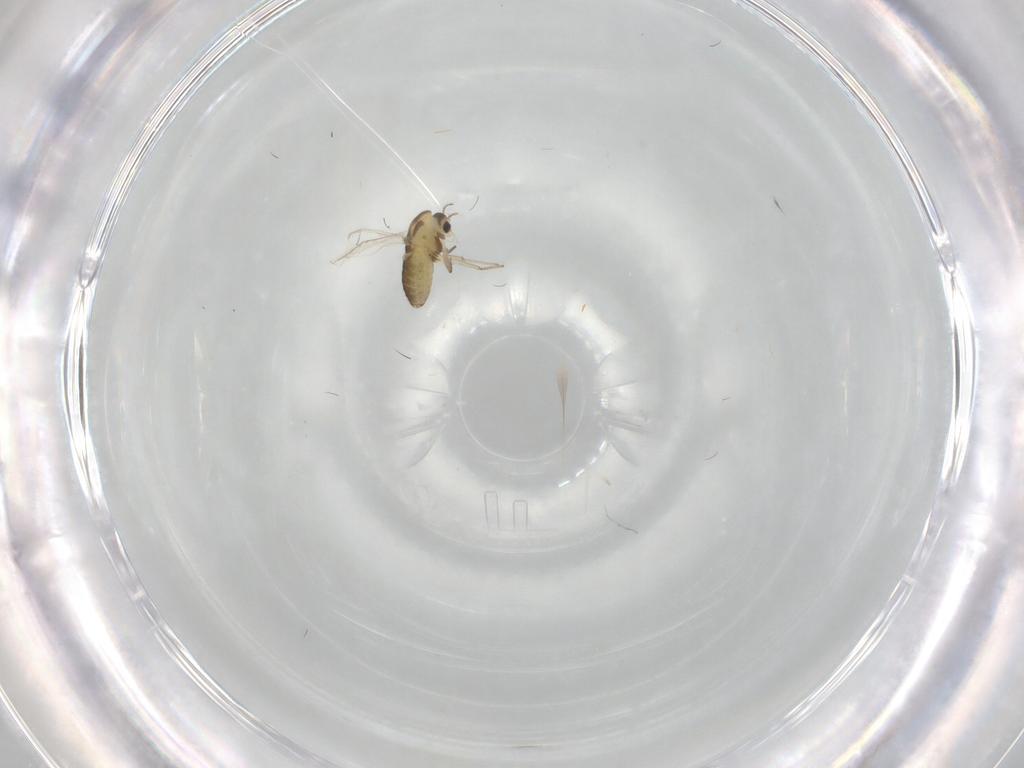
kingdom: Animalia
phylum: Arthropoda
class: Insecta
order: Diptera
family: Chironomidae
